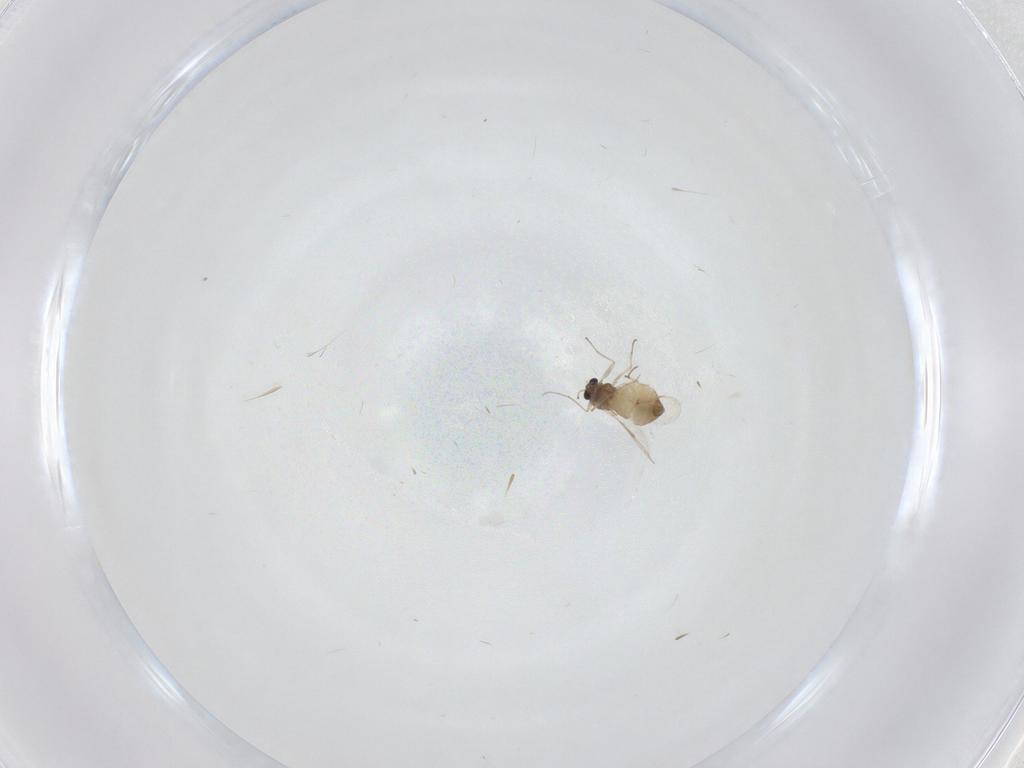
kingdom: Animalia
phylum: Arthropoda
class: Insecta
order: Diptera
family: Chironomidae
